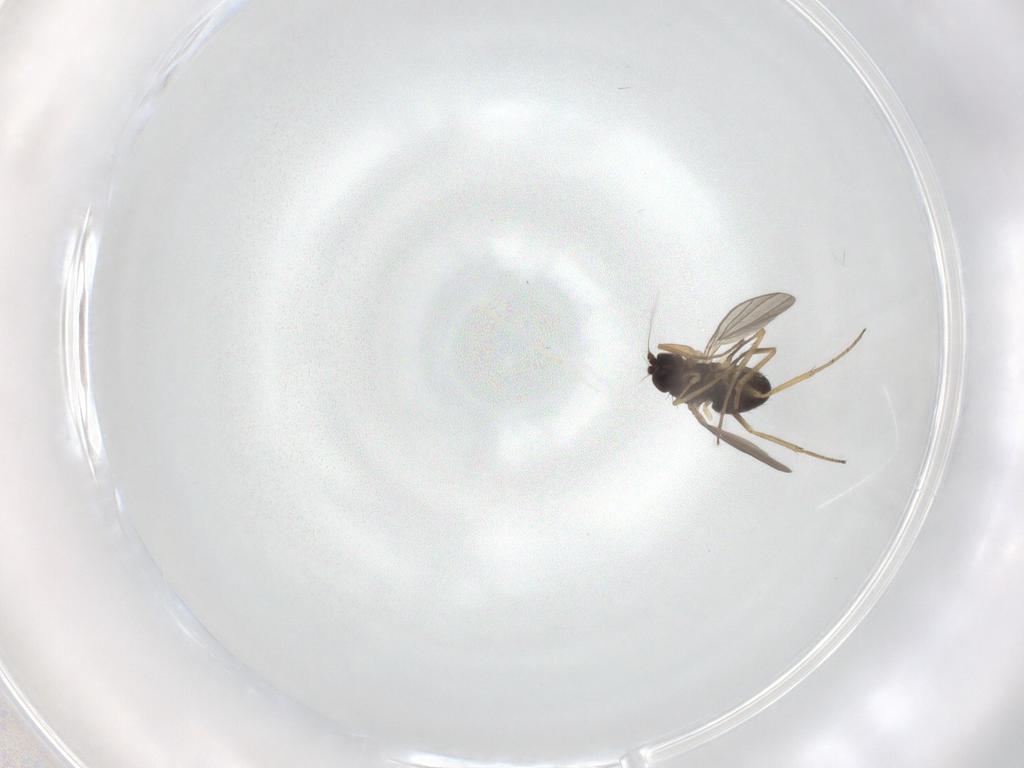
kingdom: Animalia
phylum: Arthropoda
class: Insecta
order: Diptera
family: Dolichopodidae
